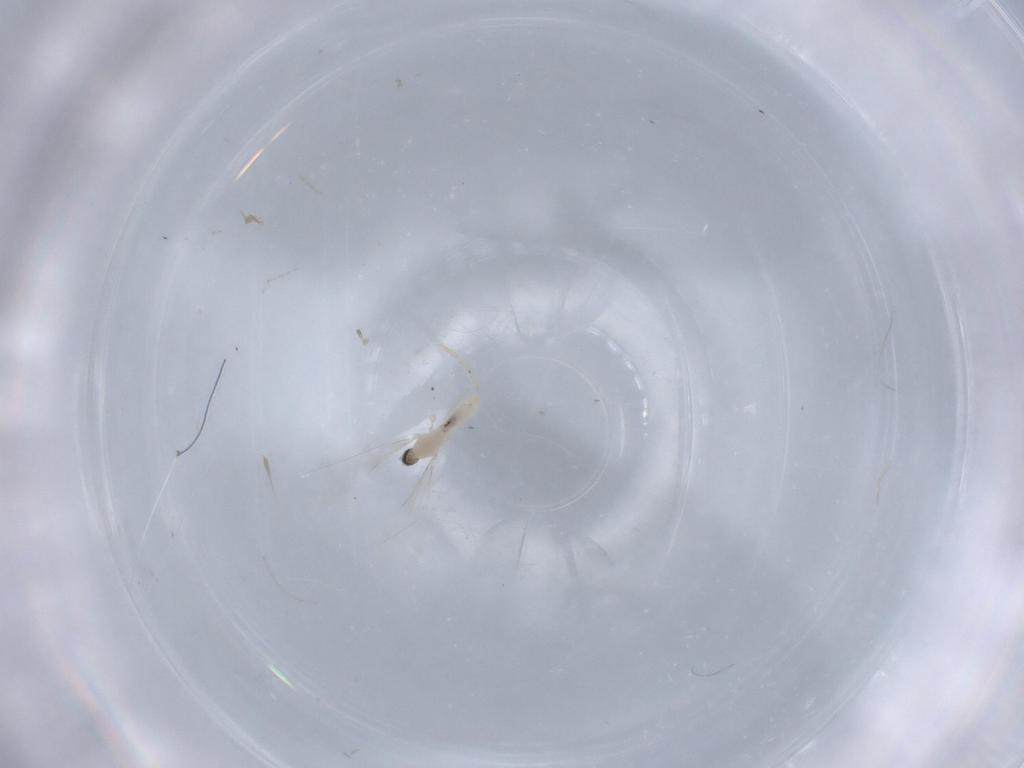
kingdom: Animalia
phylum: Arthropoda
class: Insecta
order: Diptera
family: Cecidomyiidae
